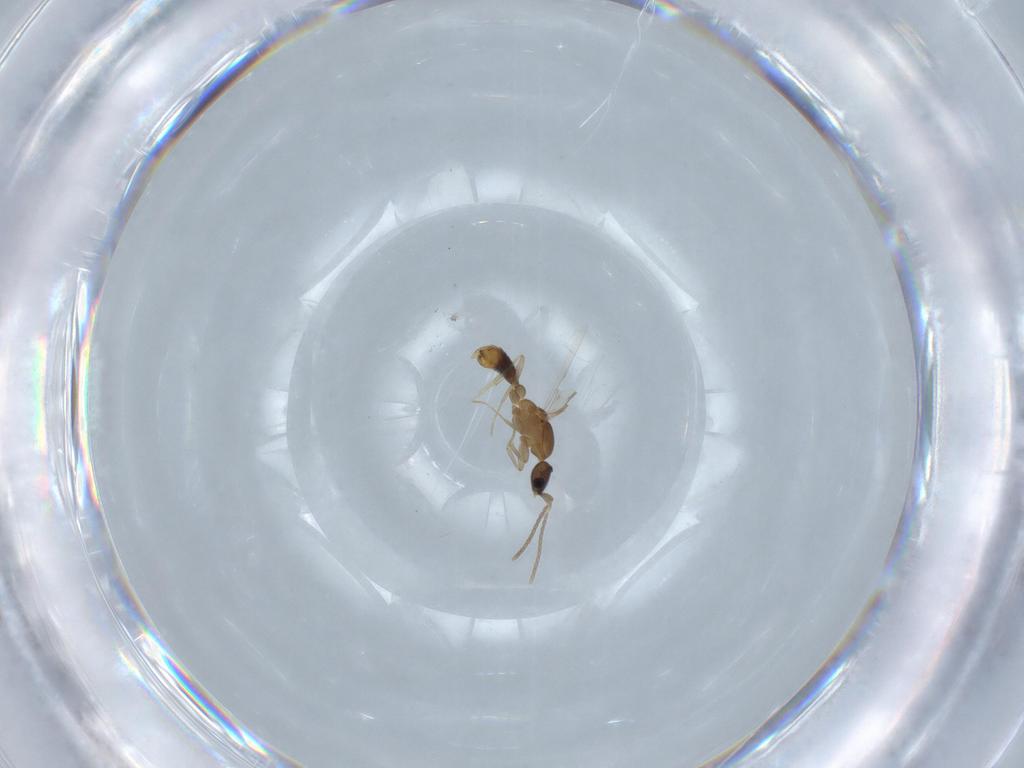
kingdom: Animalia
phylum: Arthropoda
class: Insecta
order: Hymenoptera
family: Formicidae
